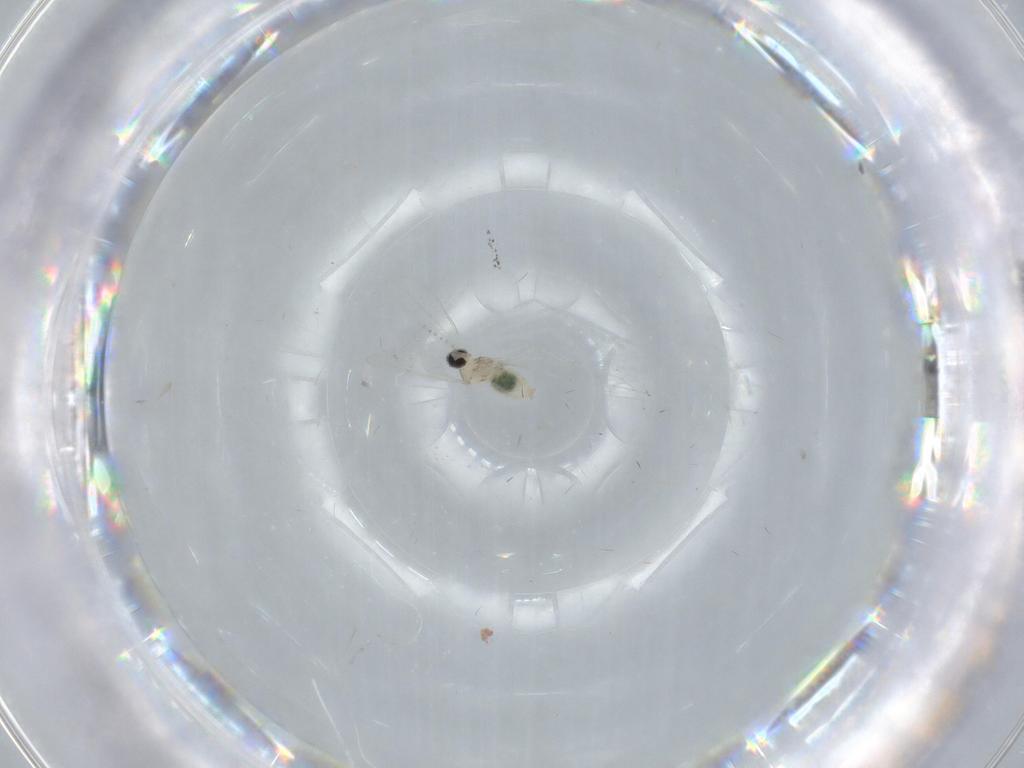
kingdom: Animalia
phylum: Arthropoda
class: Insecta
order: Diptera
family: Cecidomyiidae
